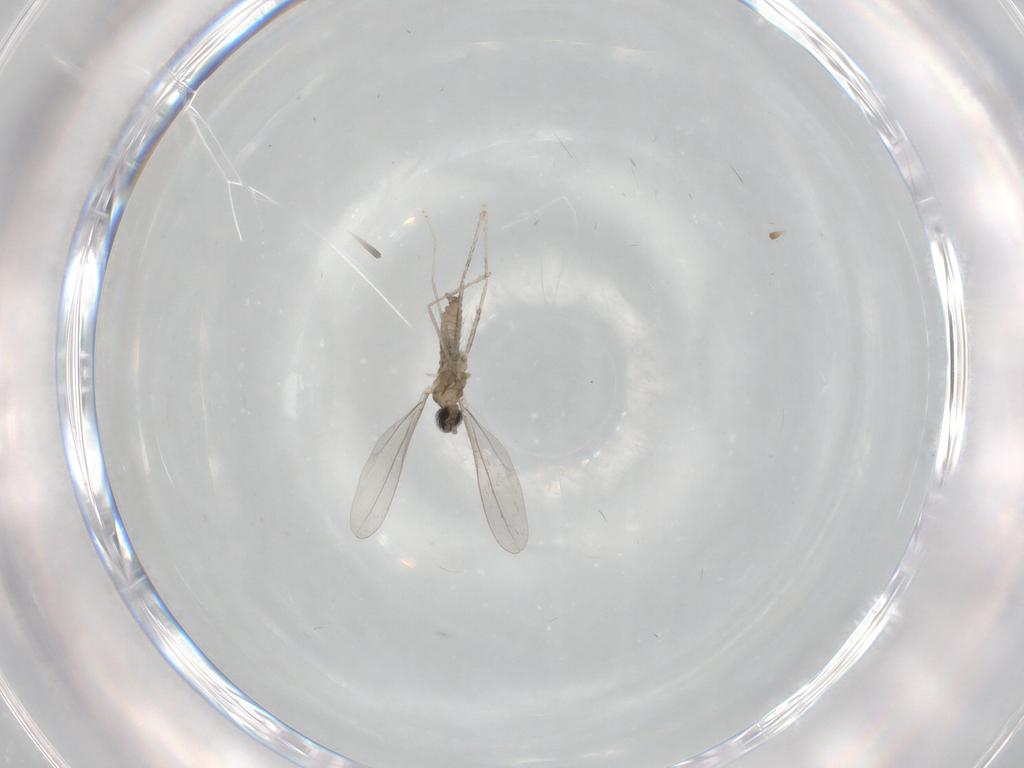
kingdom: Animalia
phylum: Arthropoda
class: Insecta
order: Diptera
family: Cecidomyiidae
